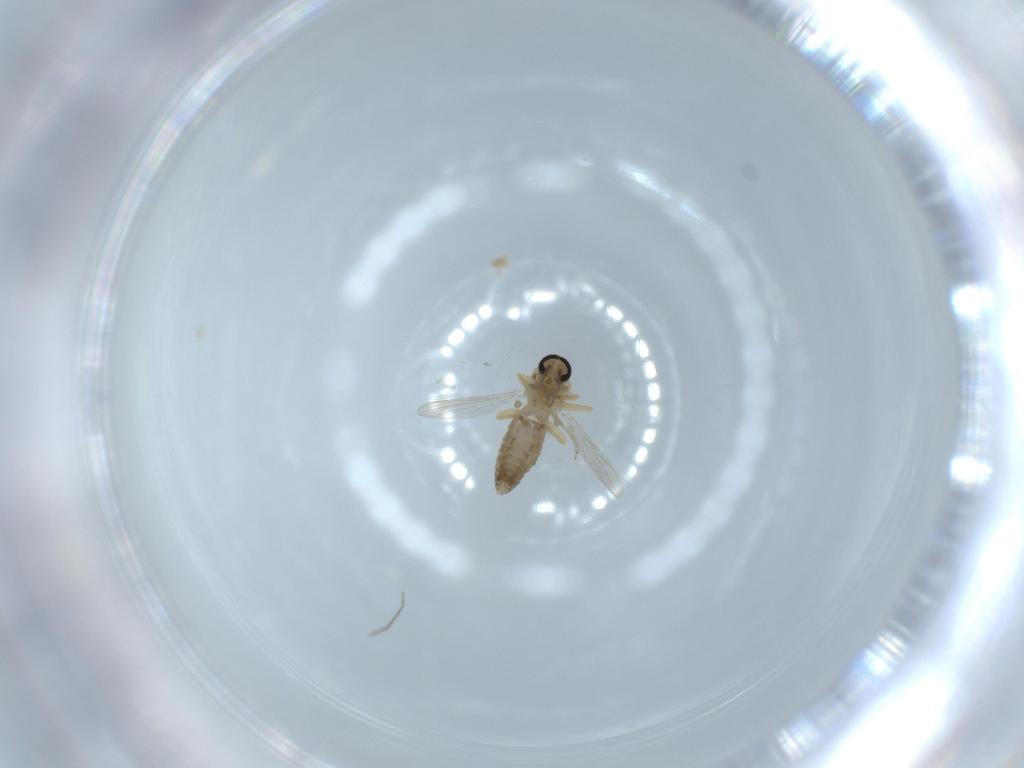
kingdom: Animalia
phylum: Arthropoda
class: Insecta
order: Diptera
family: Ceratopogonidae
